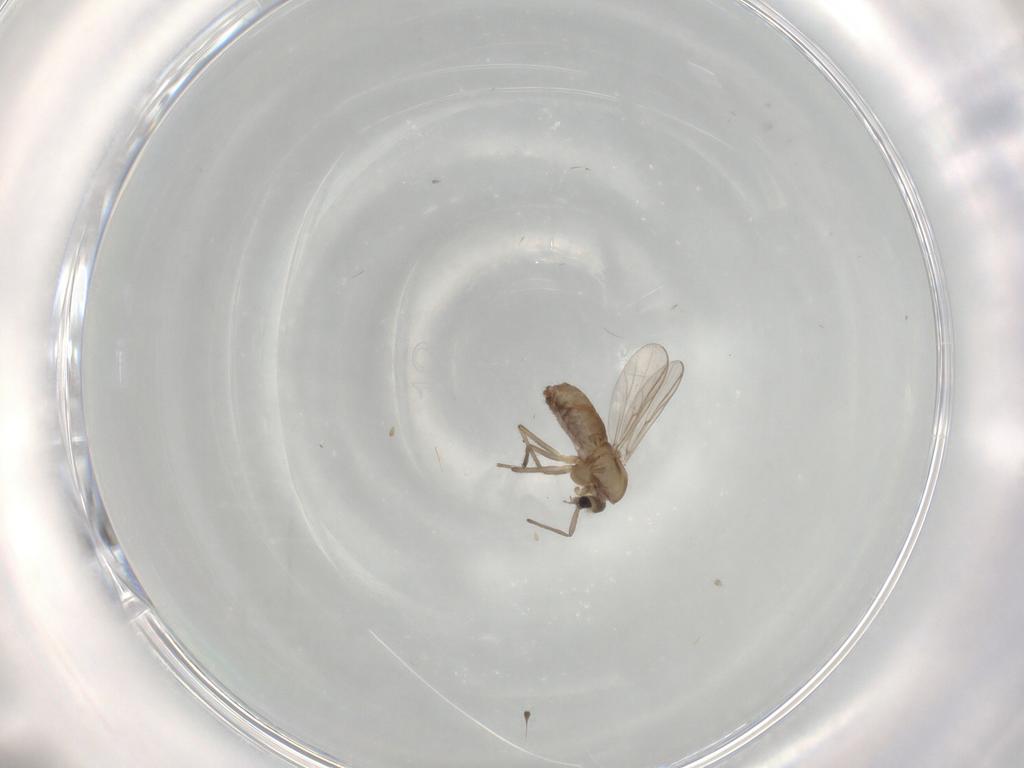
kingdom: Animalia
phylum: Arthropoda
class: Insecta
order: Diptera
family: Chironomidae
